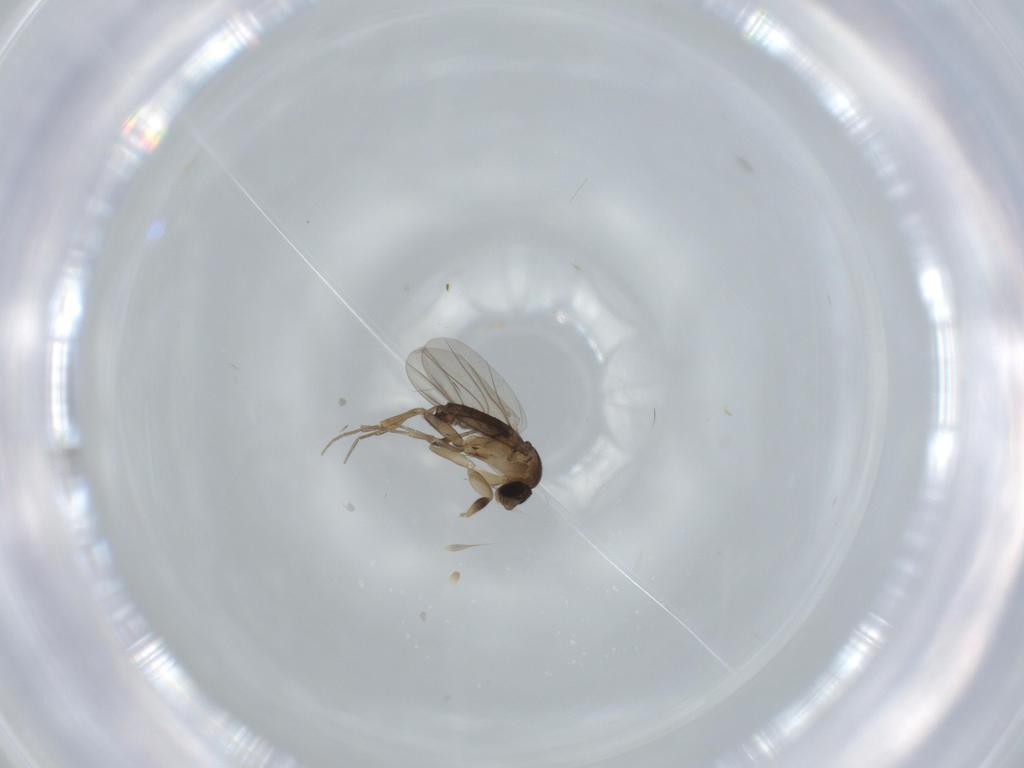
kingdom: Animalia
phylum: Arthropoda
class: Insecta
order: Diptera
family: Phoridae
